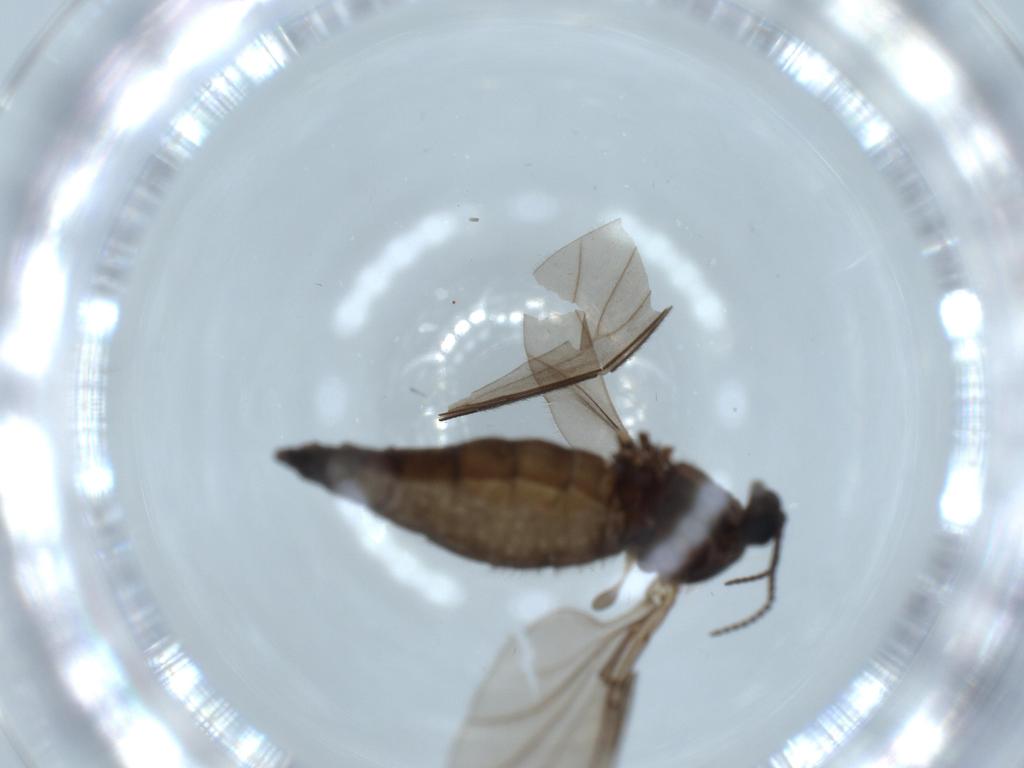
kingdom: Animalia
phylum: Arthropoda
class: Insecta
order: Diptera
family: Sciaridae
